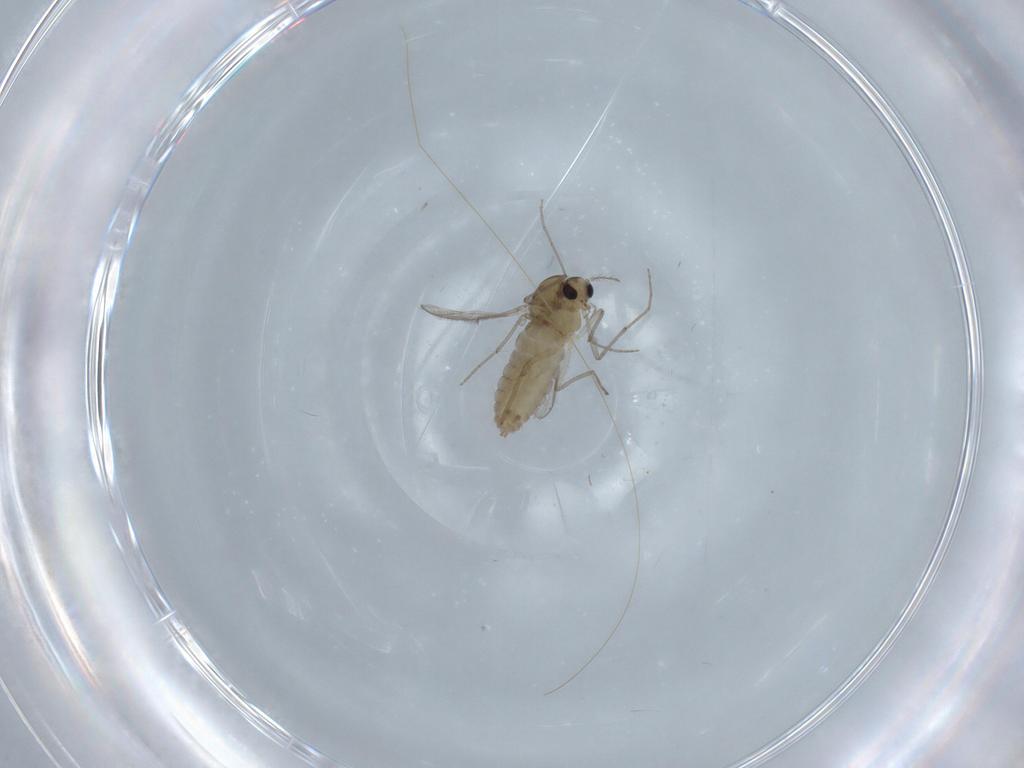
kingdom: Animalia
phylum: Arthropoda
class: Insecta
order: Diptera
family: Chironomidae
